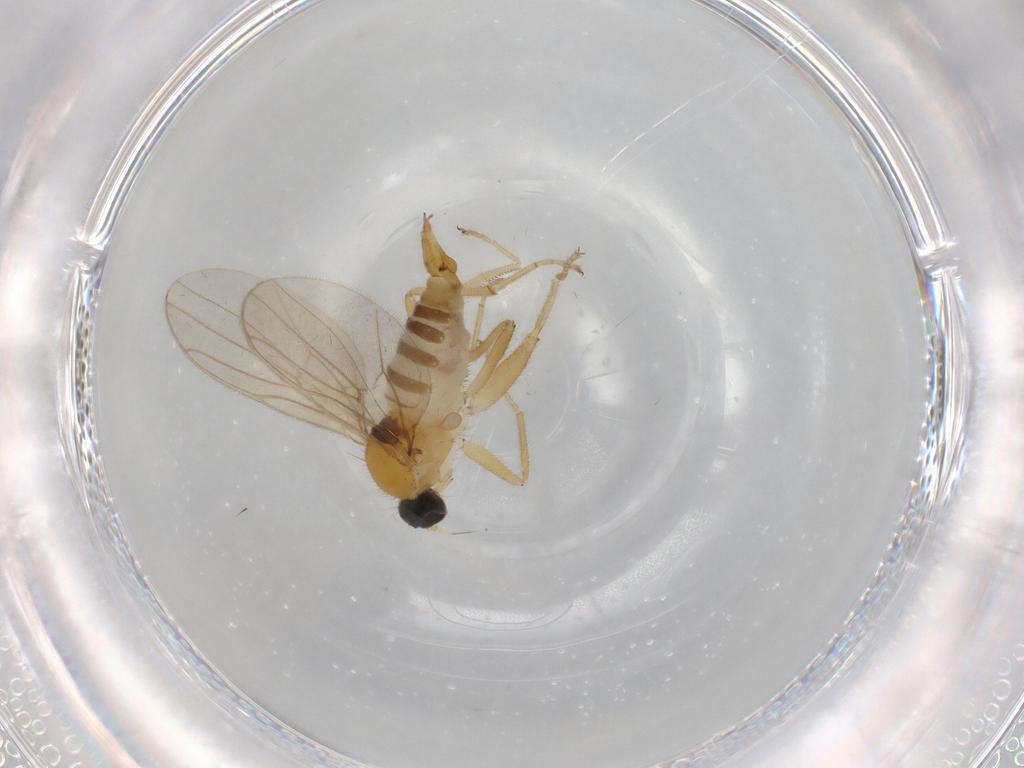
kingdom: Animalia
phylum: Arthropoda
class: Insecta
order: Diptera
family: Hybotidae
